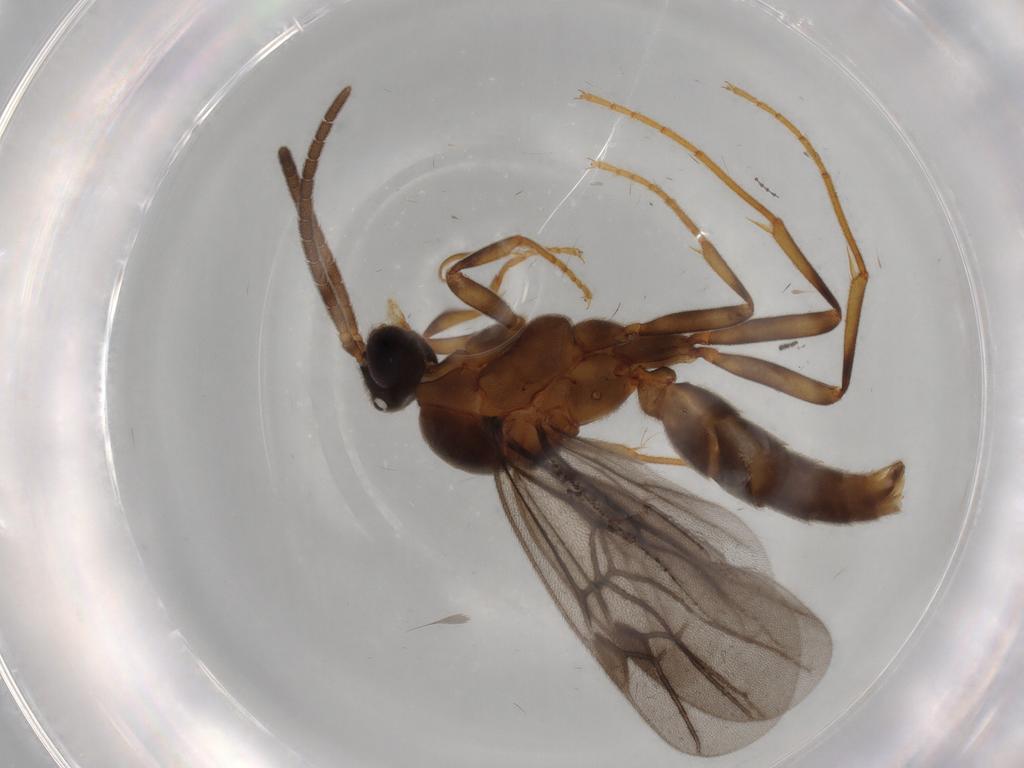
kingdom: Animalia
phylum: Arthropoda
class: Insecta
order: Hymenoptera
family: Formicidae
